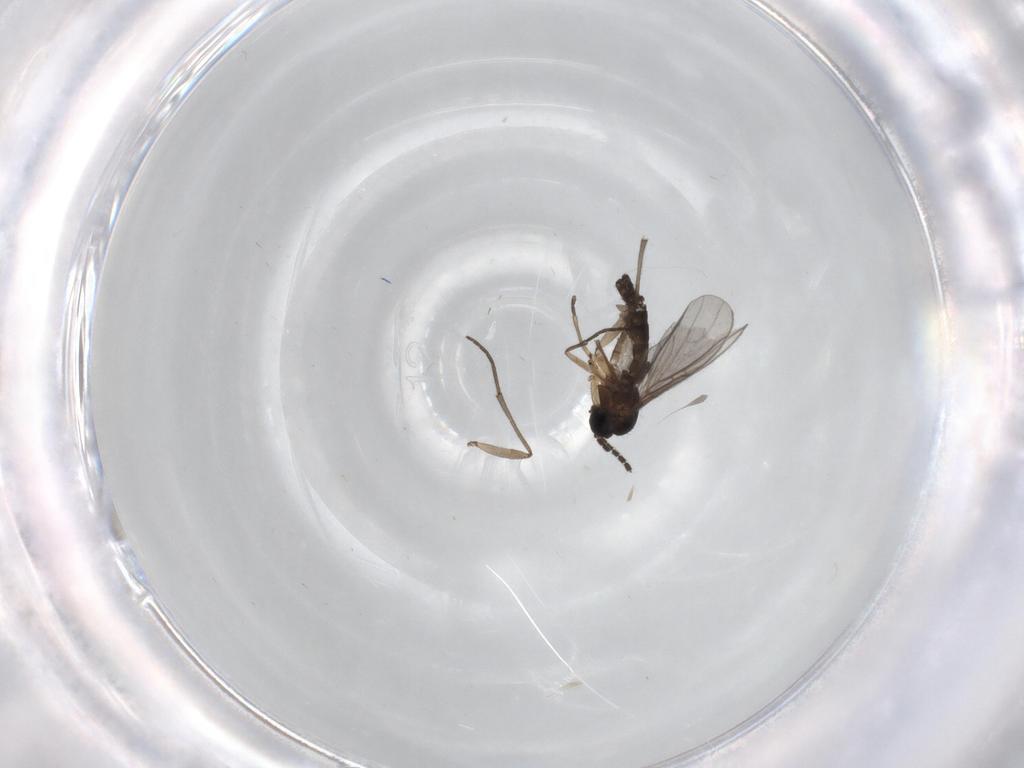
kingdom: Animalia
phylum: Arthropoda
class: Insecta
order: Diptera
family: Sciaridae
